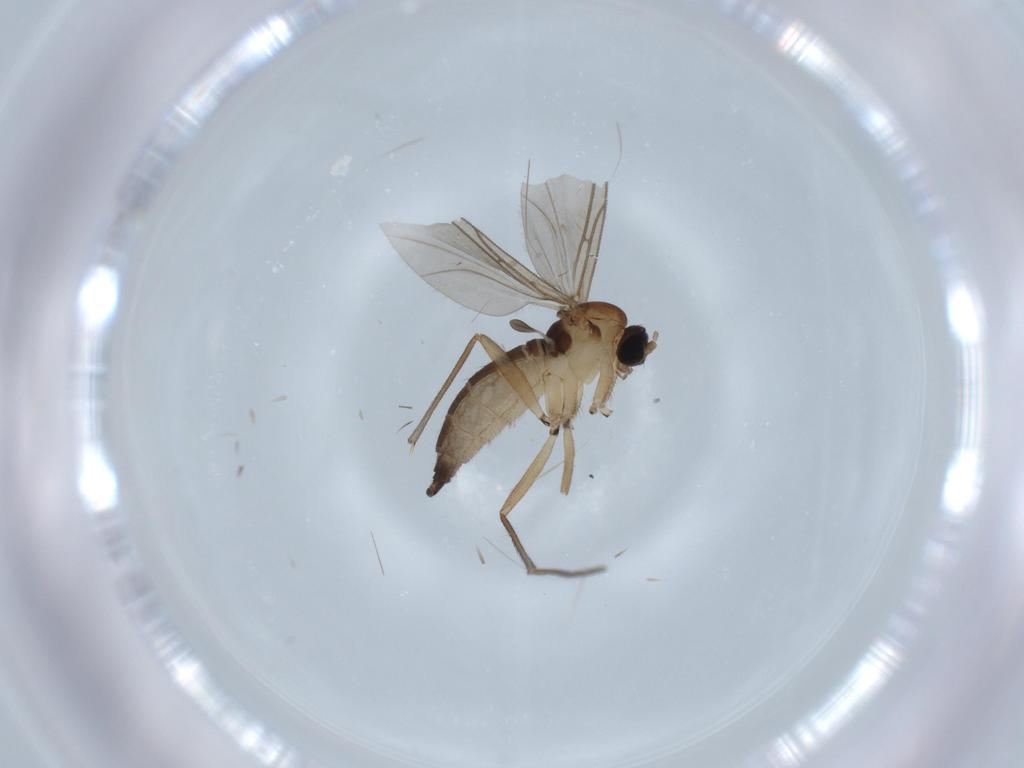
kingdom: Animalia
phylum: Arthropoda
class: Insecta
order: Diptera
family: Sciaridae
